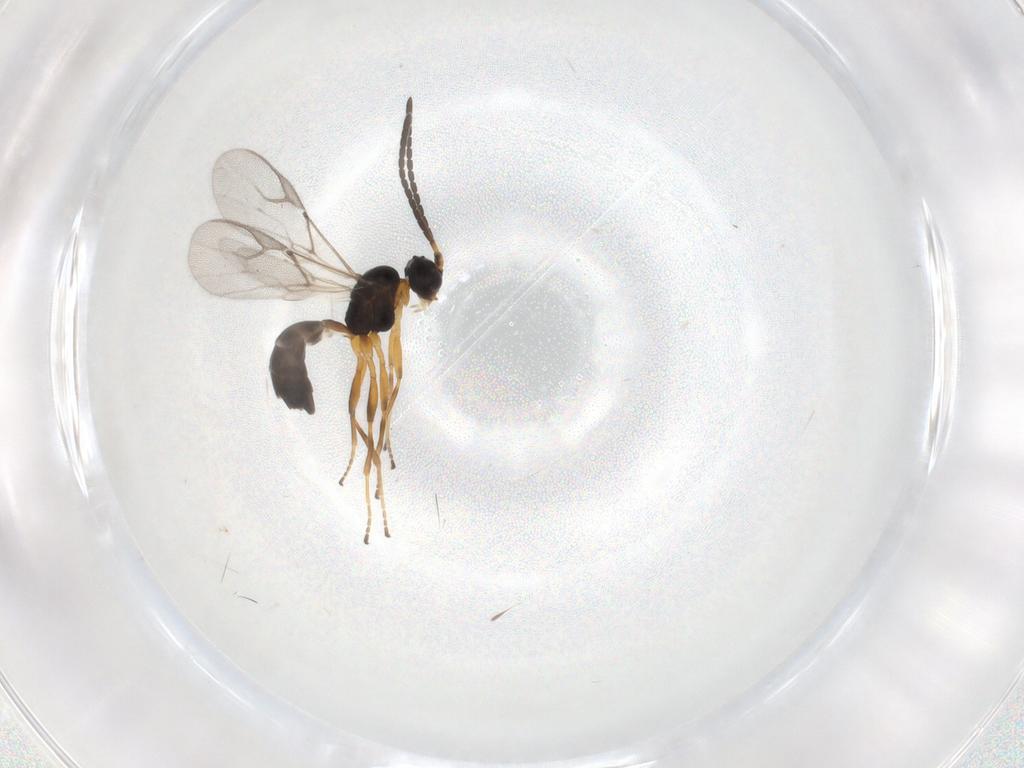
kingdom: Animalia
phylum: Arthropoda
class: Insecta
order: Hymenoptera
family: Braconidae
